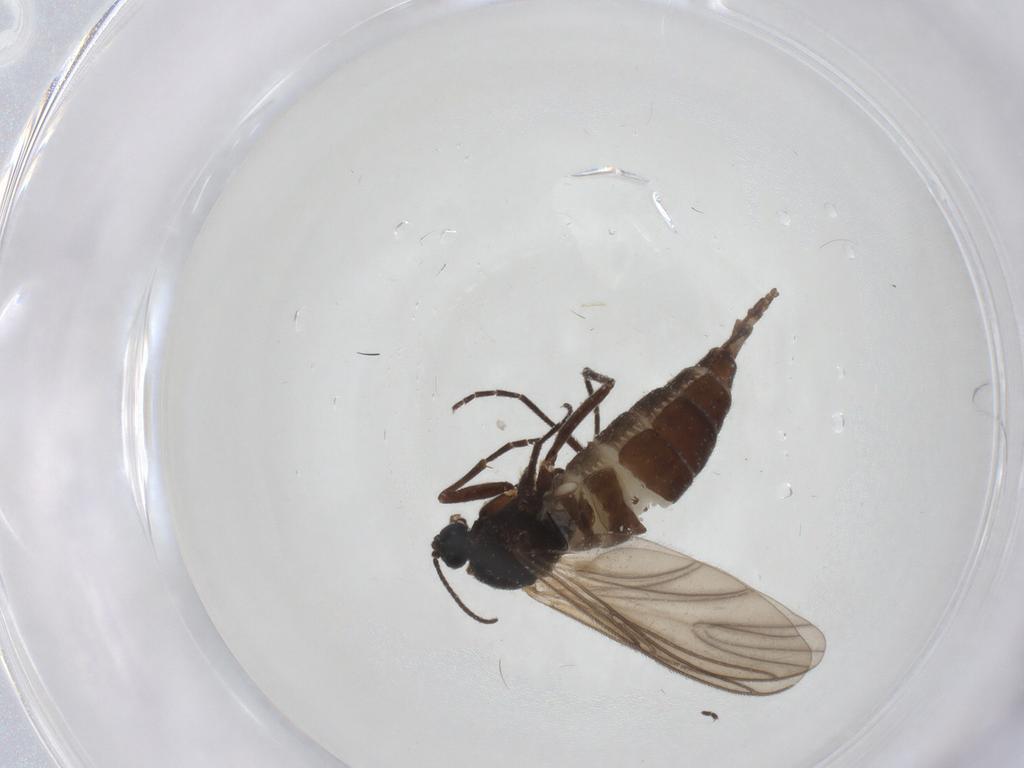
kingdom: Animalia
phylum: Arthropoda
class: Insecta
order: Diptera
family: Sciaridae
